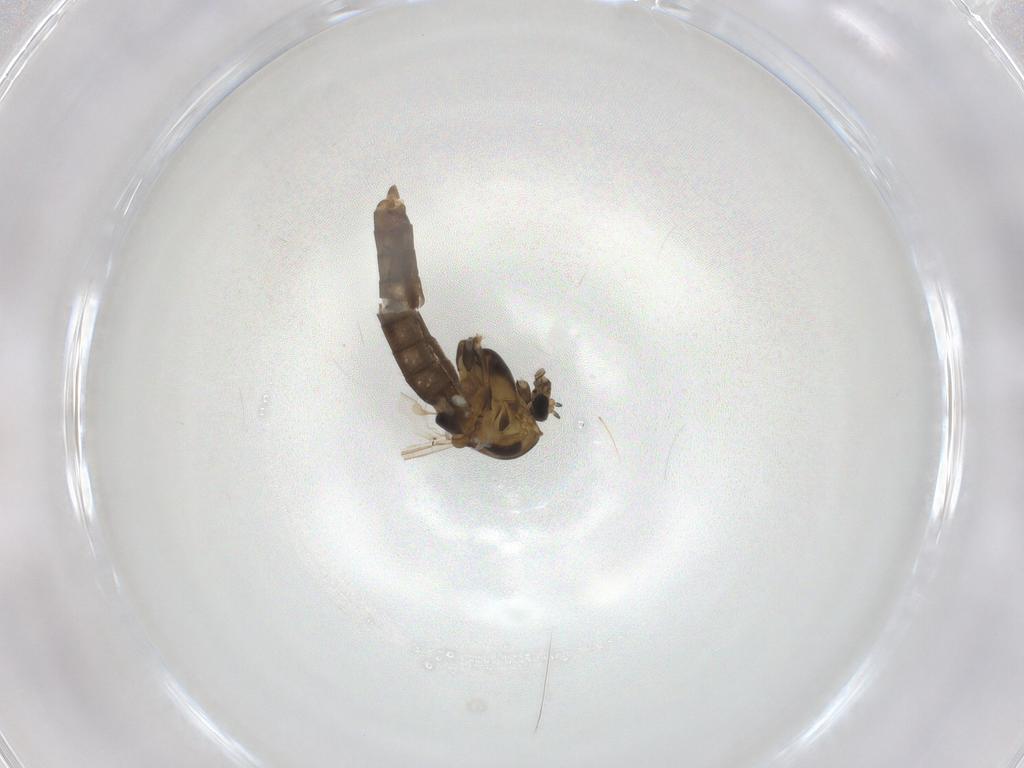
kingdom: Animalia
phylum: Arthropoda
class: Insecta
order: Diptera
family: Chironomidae
